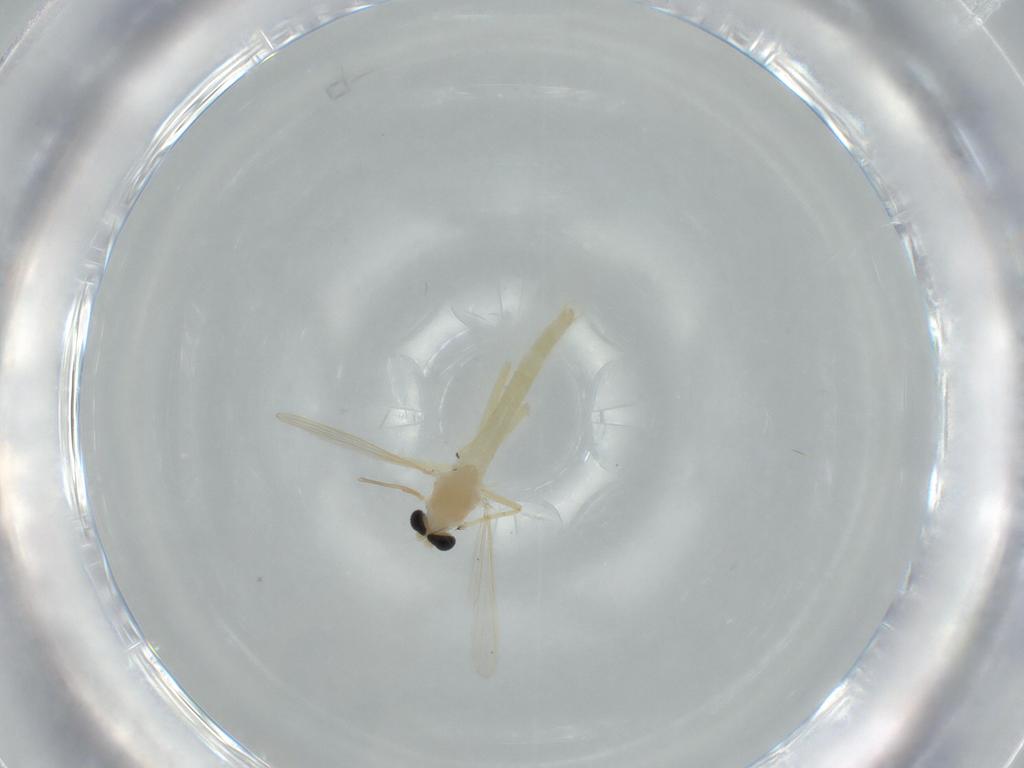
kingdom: Animalia
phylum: Arthropoda
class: Insecta
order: Diptera
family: Chironomidae
